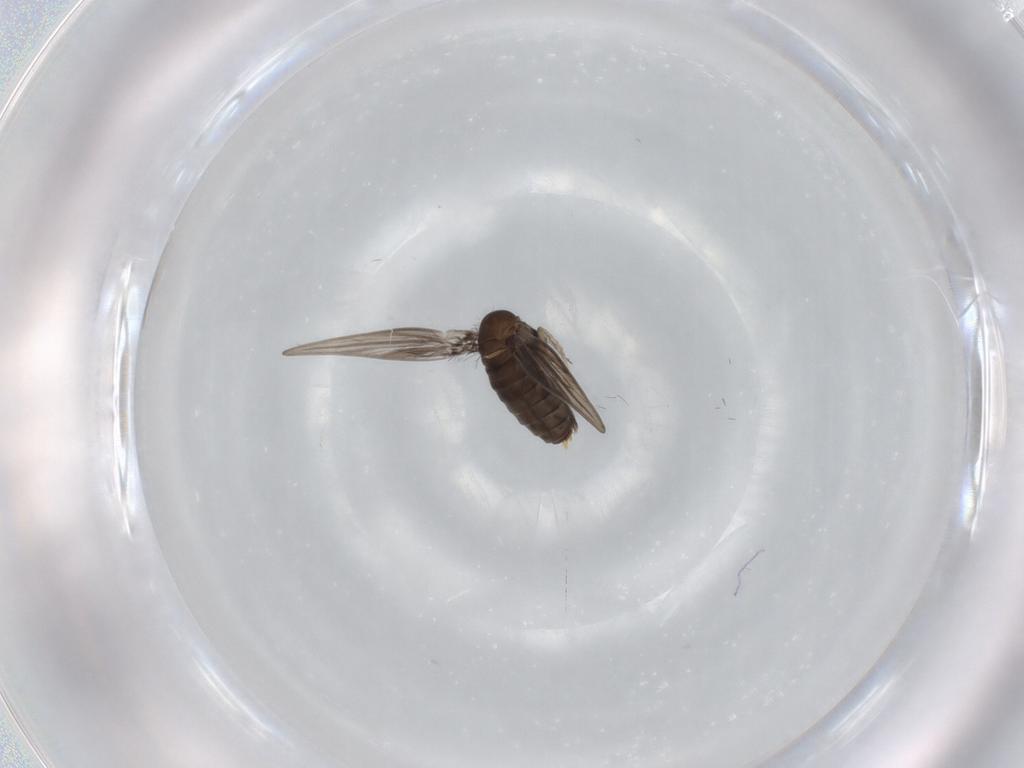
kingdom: Animalia
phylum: Arthropoda
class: Insecta
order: Diptera
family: Psychodidae
